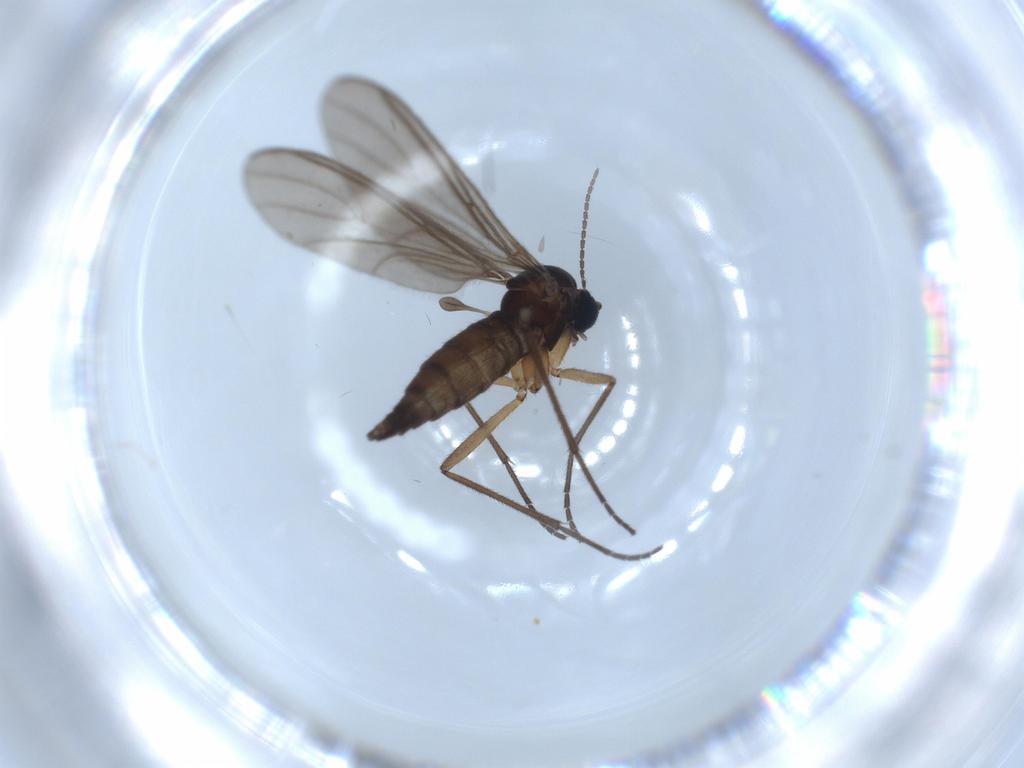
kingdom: Animalia
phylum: Arthropoda
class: Insecta
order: Diptera
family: Sciaridae
